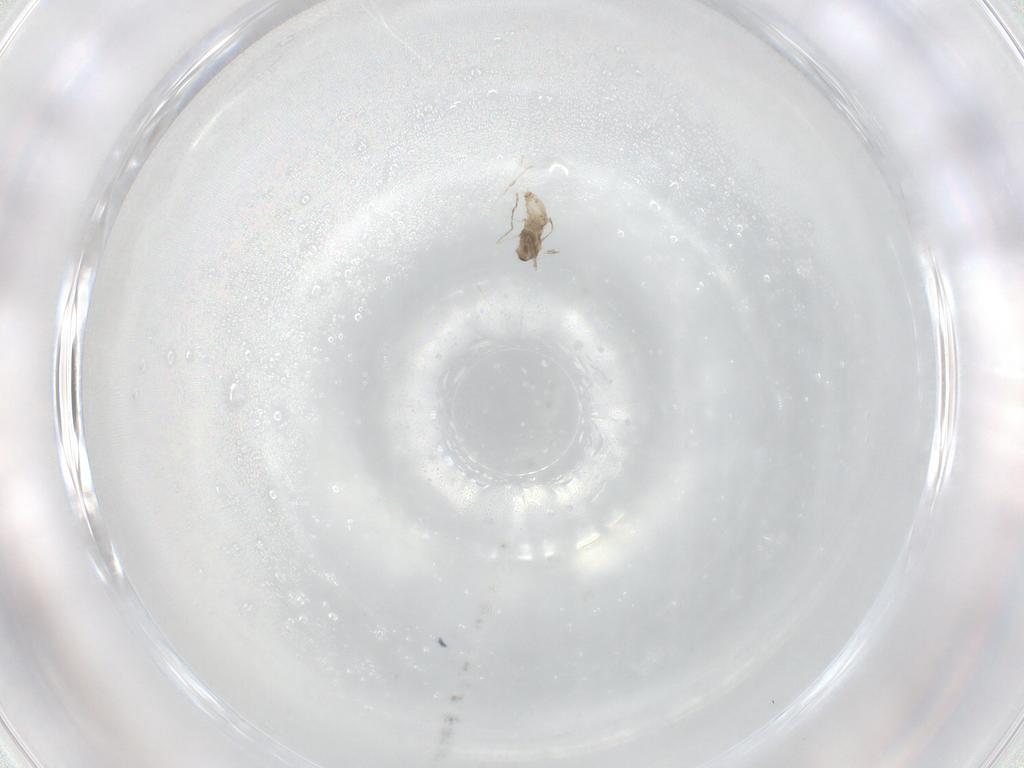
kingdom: Animalia
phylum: Arthropoda
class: Insecta
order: Diptera
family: Cecidomyiidae
